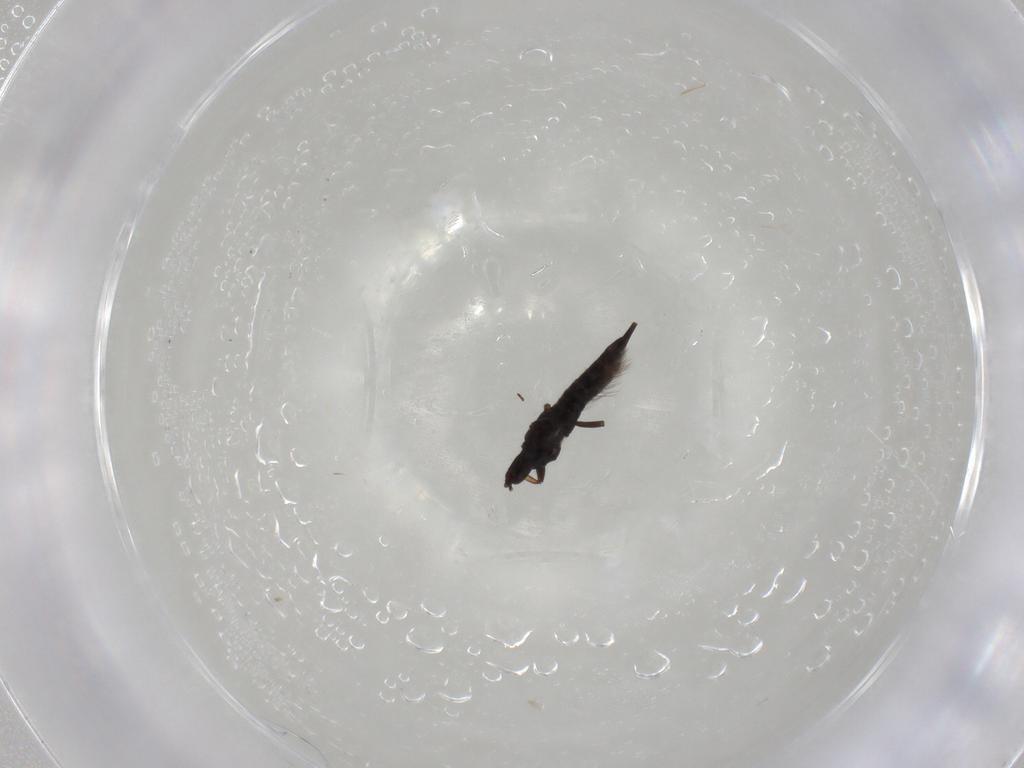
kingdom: Animalia
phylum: Arthropoda
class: Insecta
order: Thysanoptera
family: Phlaeothripidae
